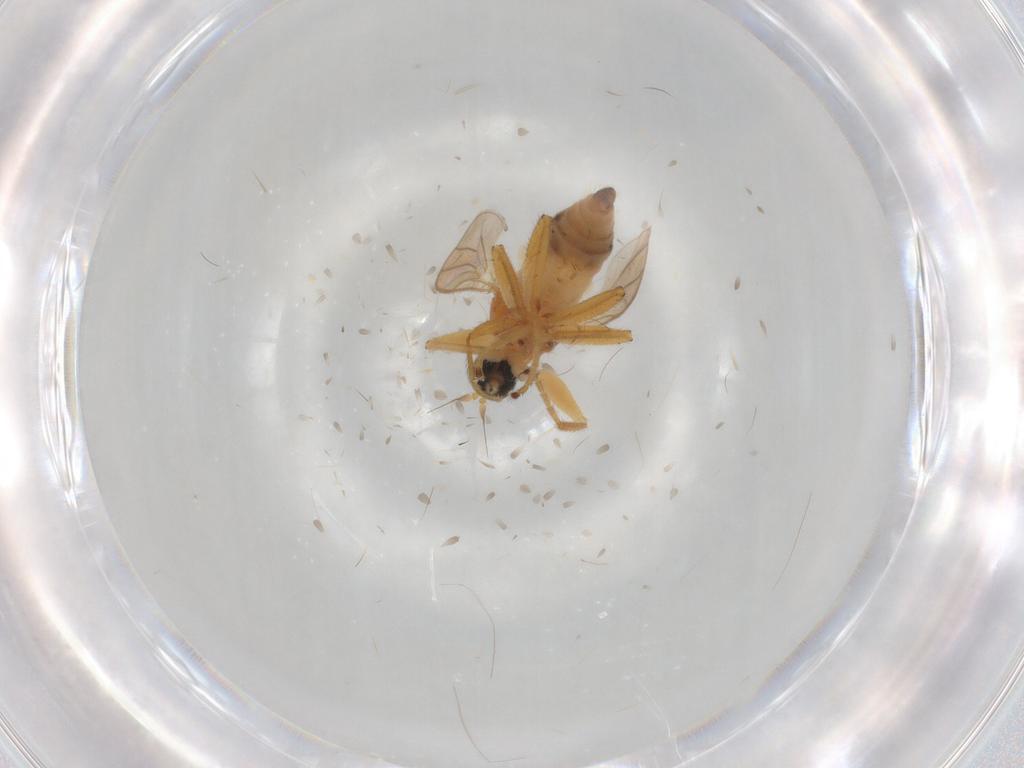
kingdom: Animalia
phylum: Arthropoda
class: Insecta
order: Diptera
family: Hybotidae
